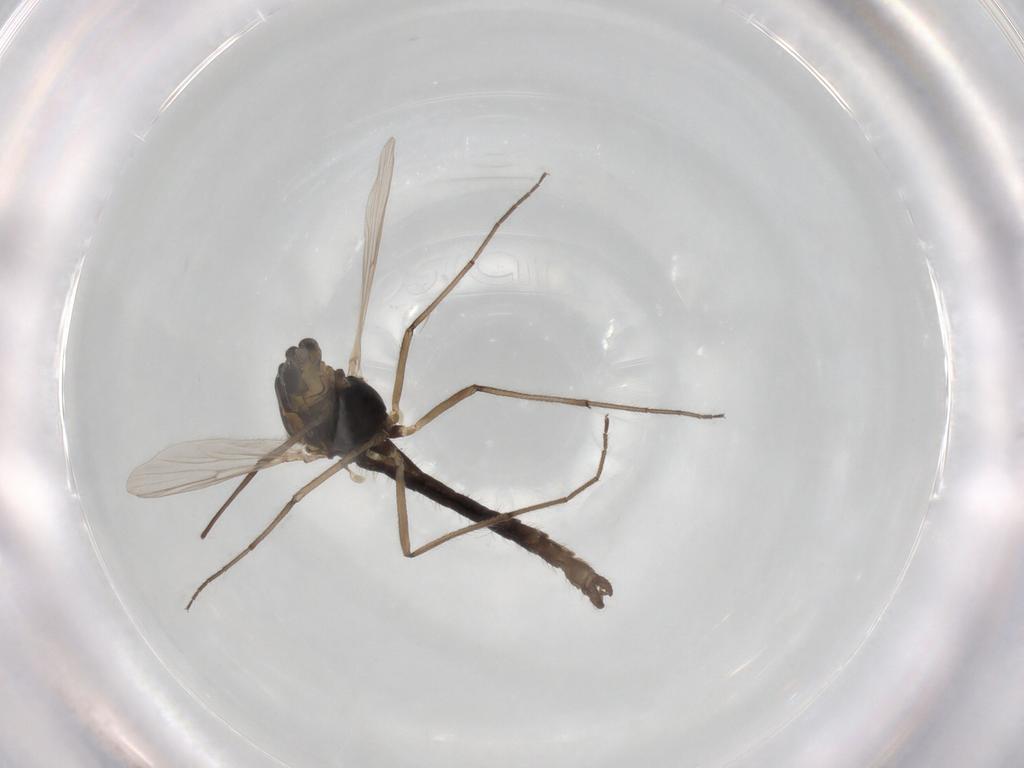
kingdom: Animalia
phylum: Arthropoda
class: Insecta
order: Diptera
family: Chironomidae
